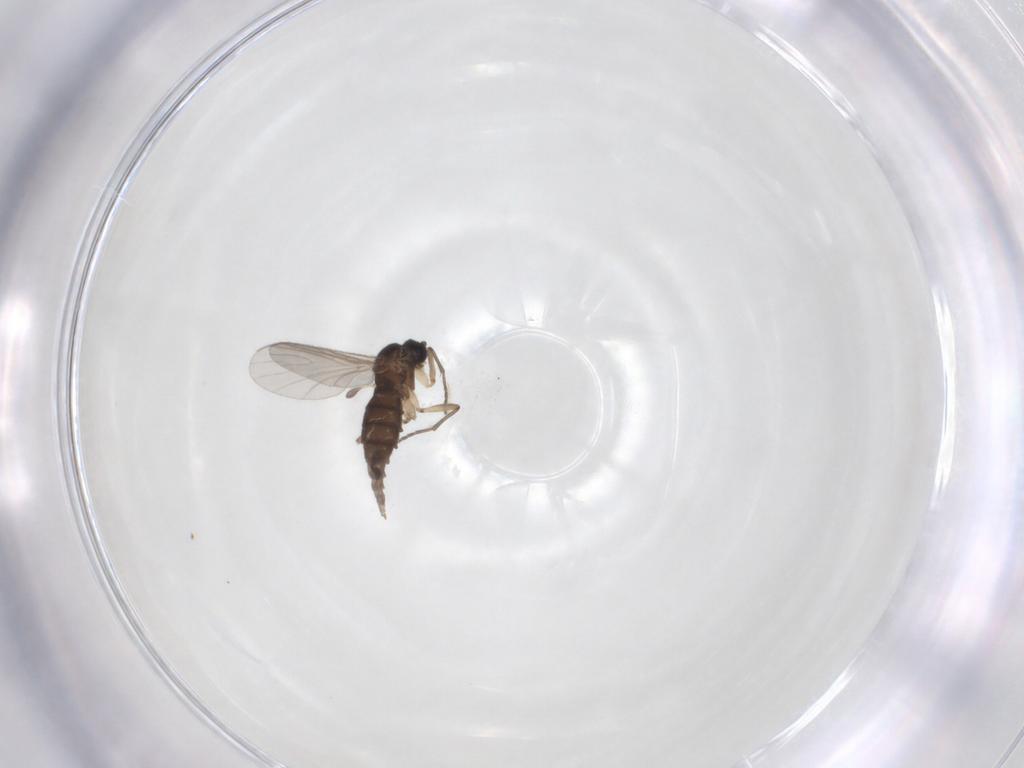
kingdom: Animalia
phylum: Arthropoda
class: Insecta
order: Diptera
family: Sciaridae
